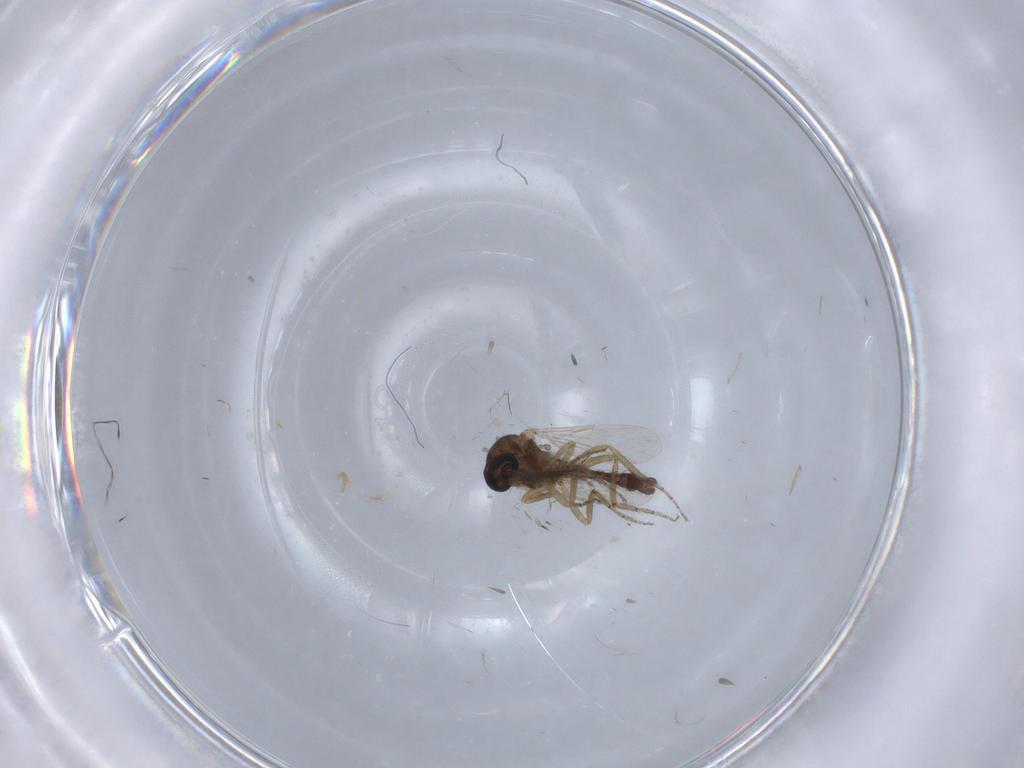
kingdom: Animalia
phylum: Arthropoda
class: Insecta
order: Diptera
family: Ceratopogonidae
